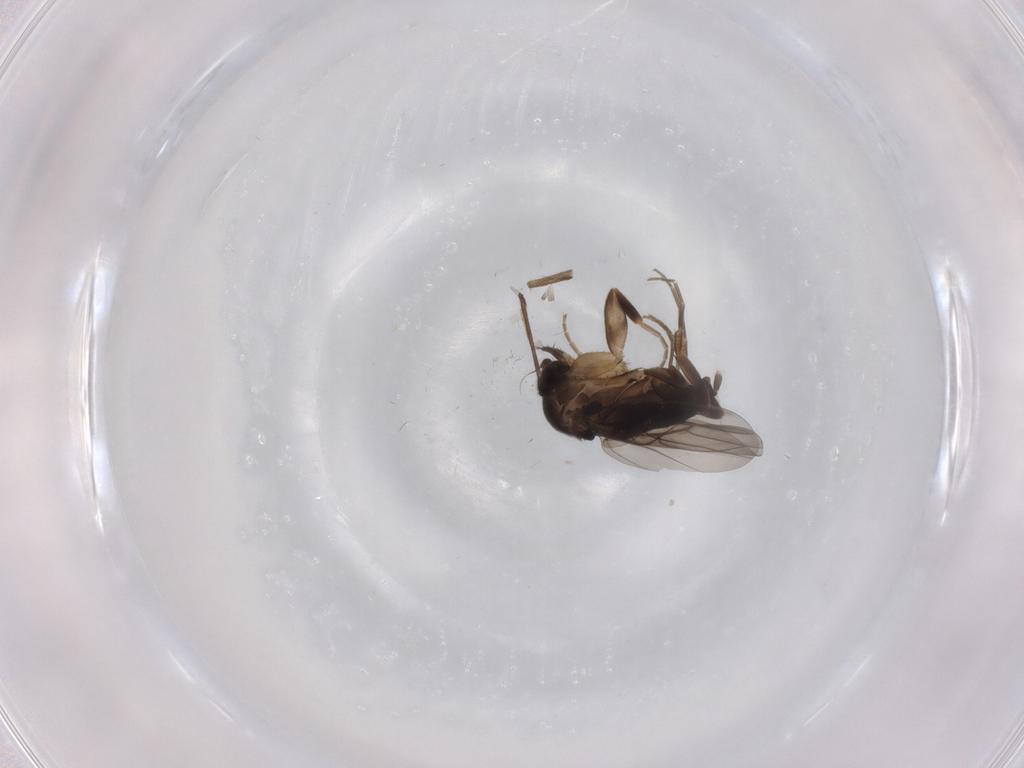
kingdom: Animalia
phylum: Arthropoda
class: Insecta
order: Diptera
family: Phoridae
